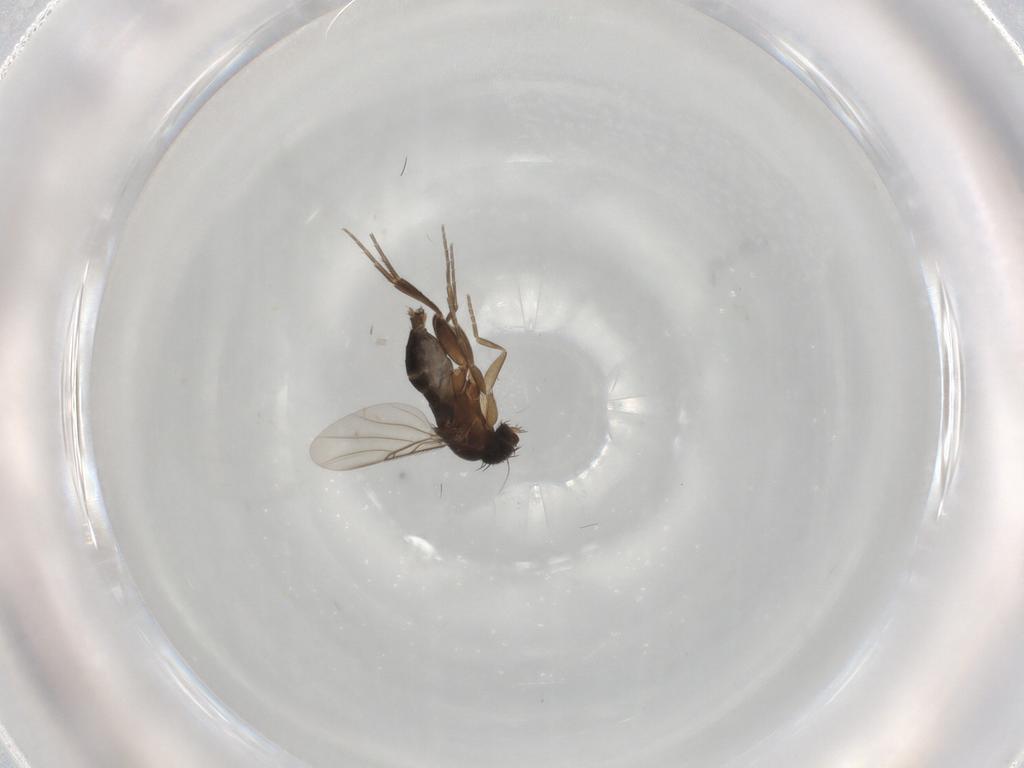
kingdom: Animalia
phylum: Arthropoda
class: Insecta
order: Diptera
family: Phoridae
